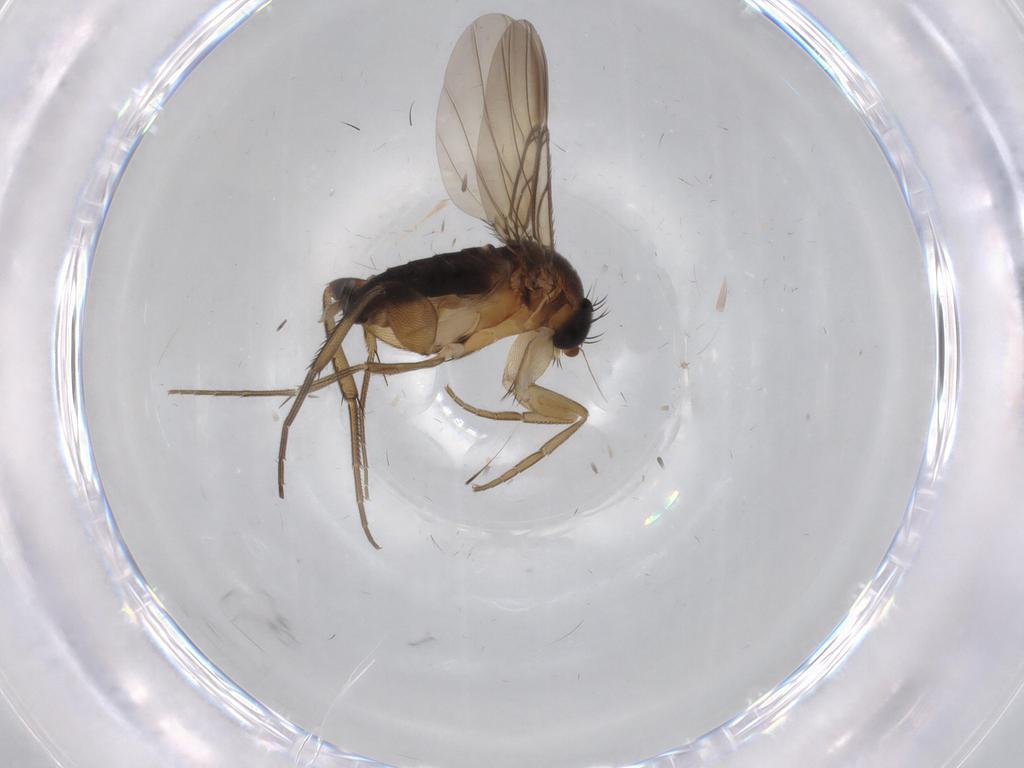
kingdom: Animalia
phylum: Arthropoda
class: Insecta
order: Diptera
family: Phoridae
